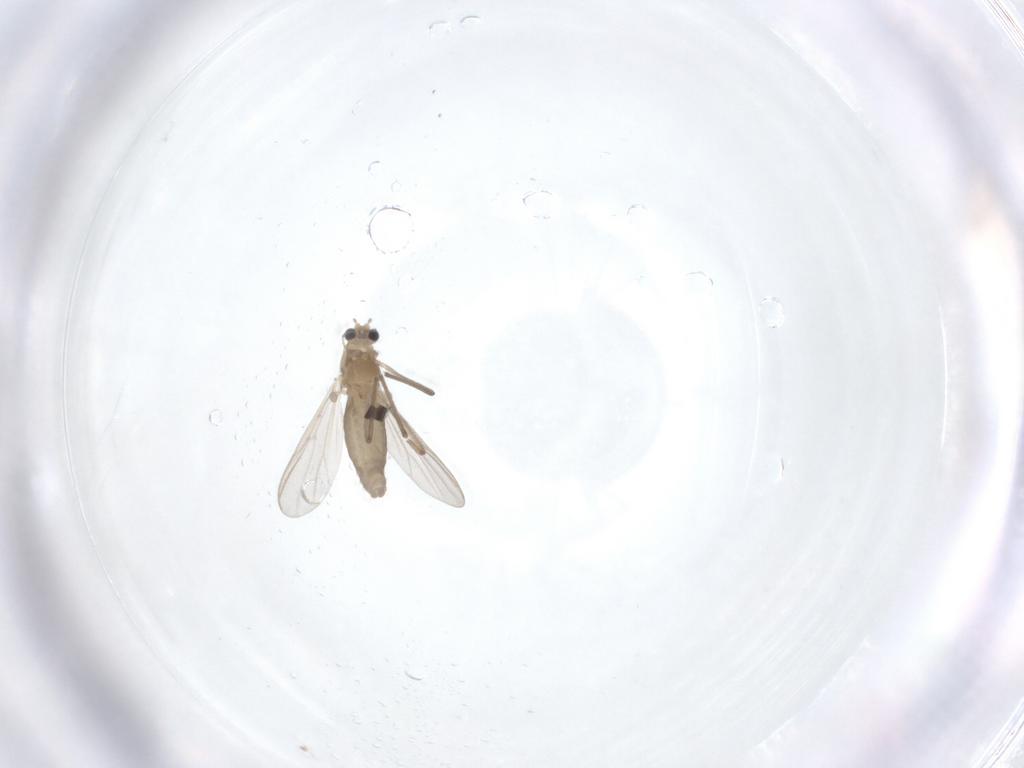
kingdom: Animalia
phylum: Arthropoda
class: Insecta
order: Diptera
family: Chironomidae
